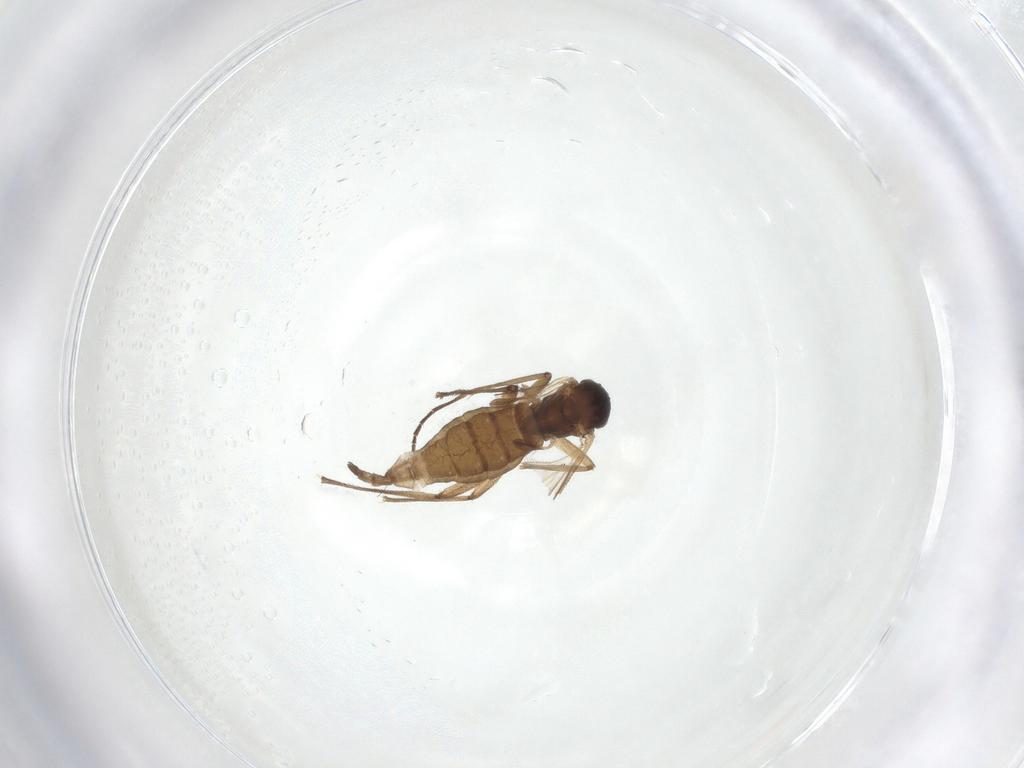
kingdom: Animalia
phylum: Arthropoda
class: Insecta
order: Diptera
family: Sciaridae
